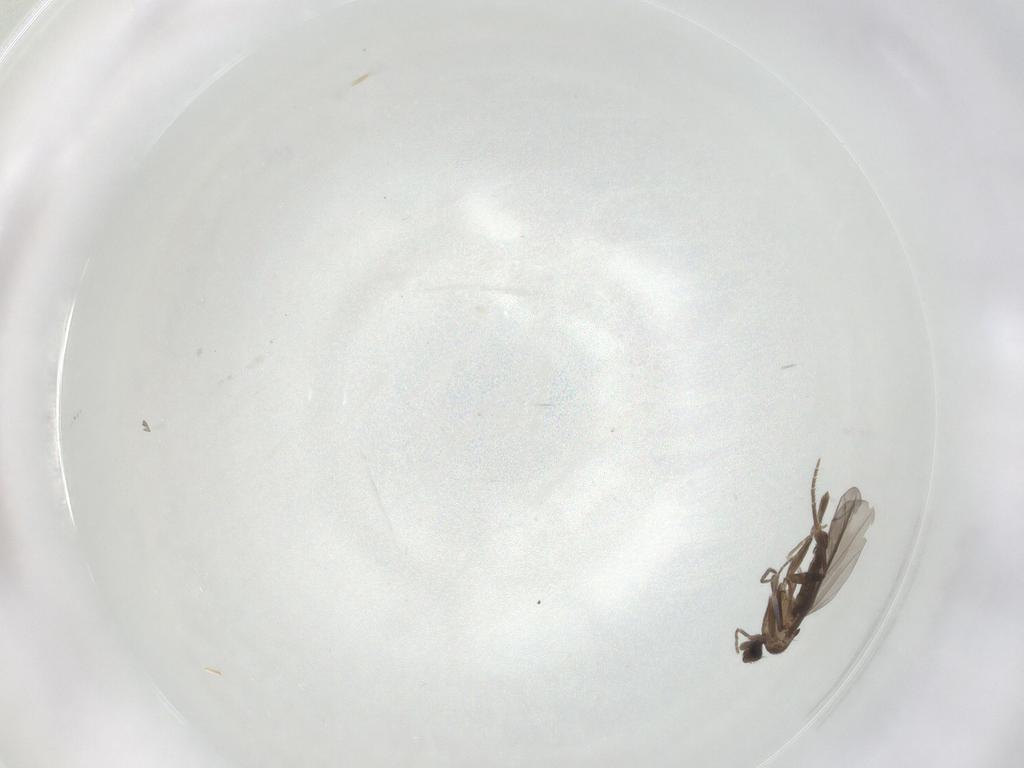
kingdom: Animalia
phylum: Arthropoda
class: Insecta
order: Diptera
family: Phoridae
